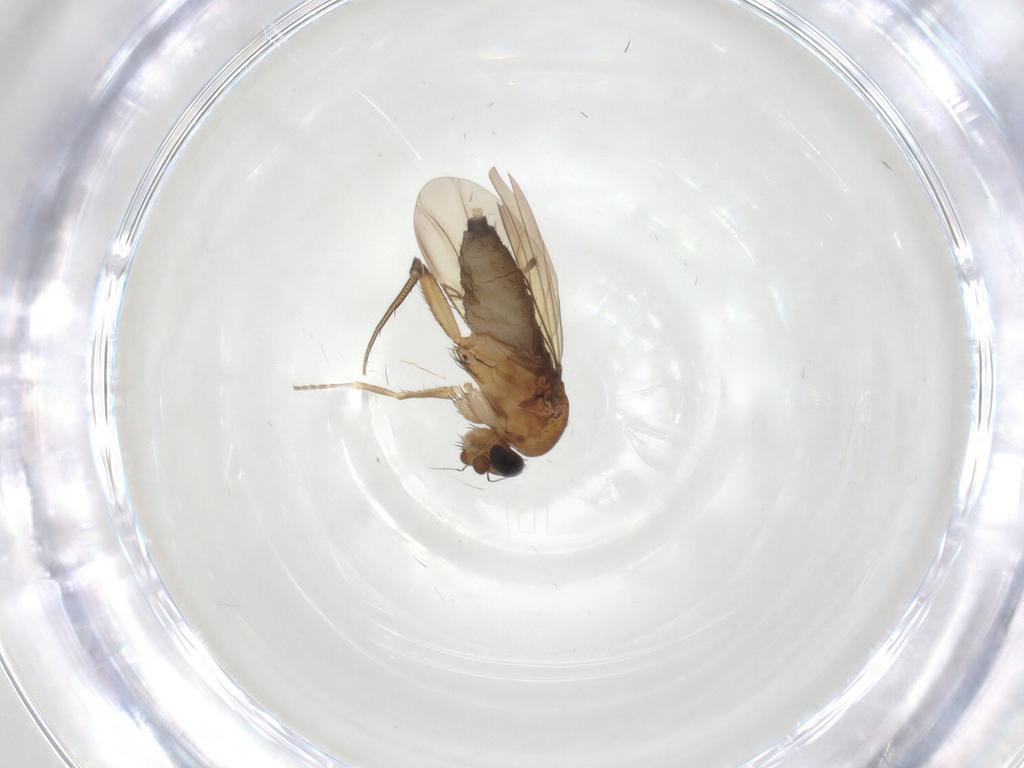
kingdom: Animalia
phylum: Arthropoda
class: Insecta
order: Diptera
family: Phoridae
